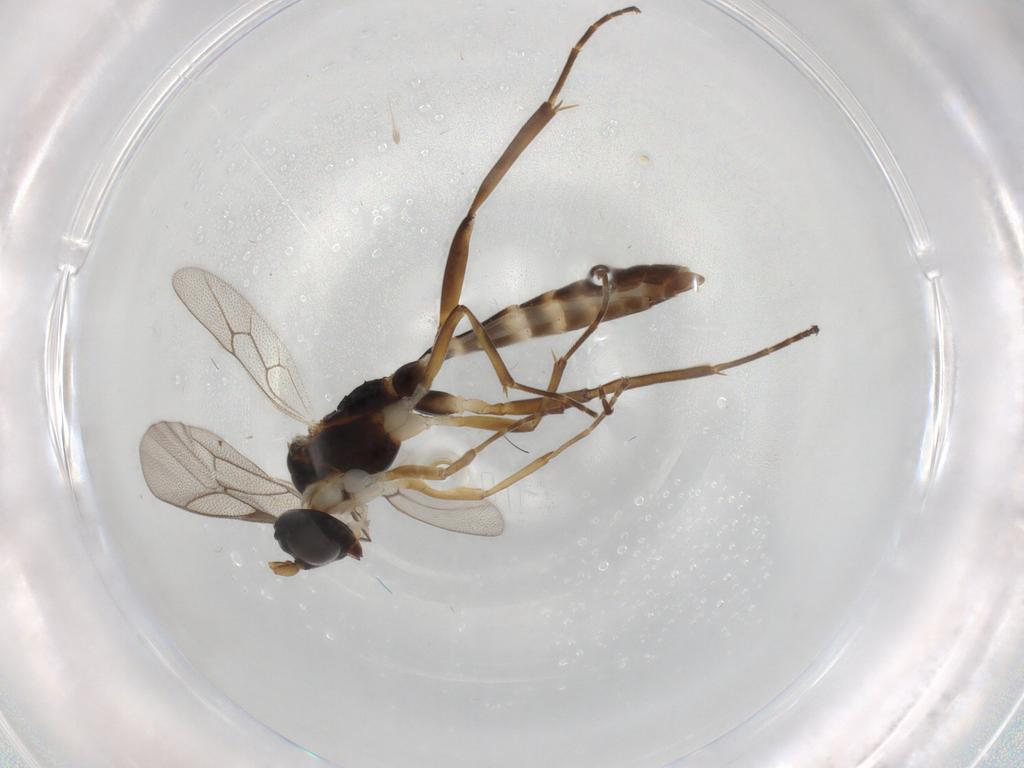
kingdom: Animalia
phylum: Arthropoda
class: Insecta
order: Hymenoptera
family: Ichneumonidae
